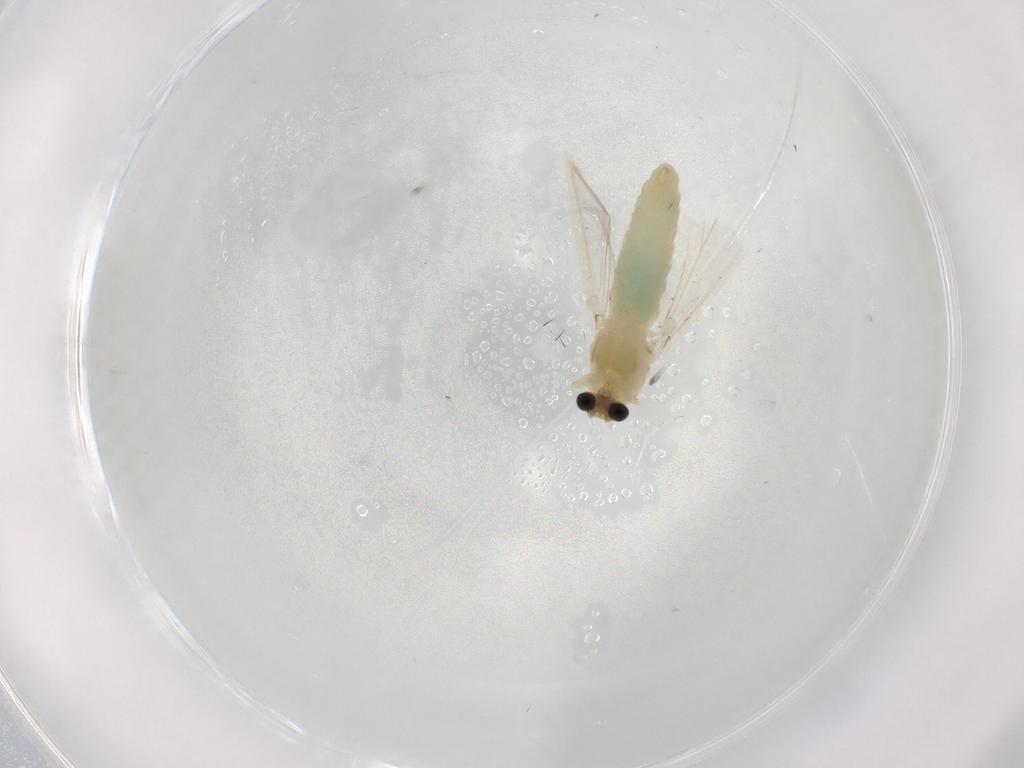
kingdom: Animalia
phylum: Arthropoda
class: Insecta
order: Diptera
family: Chironomidae
